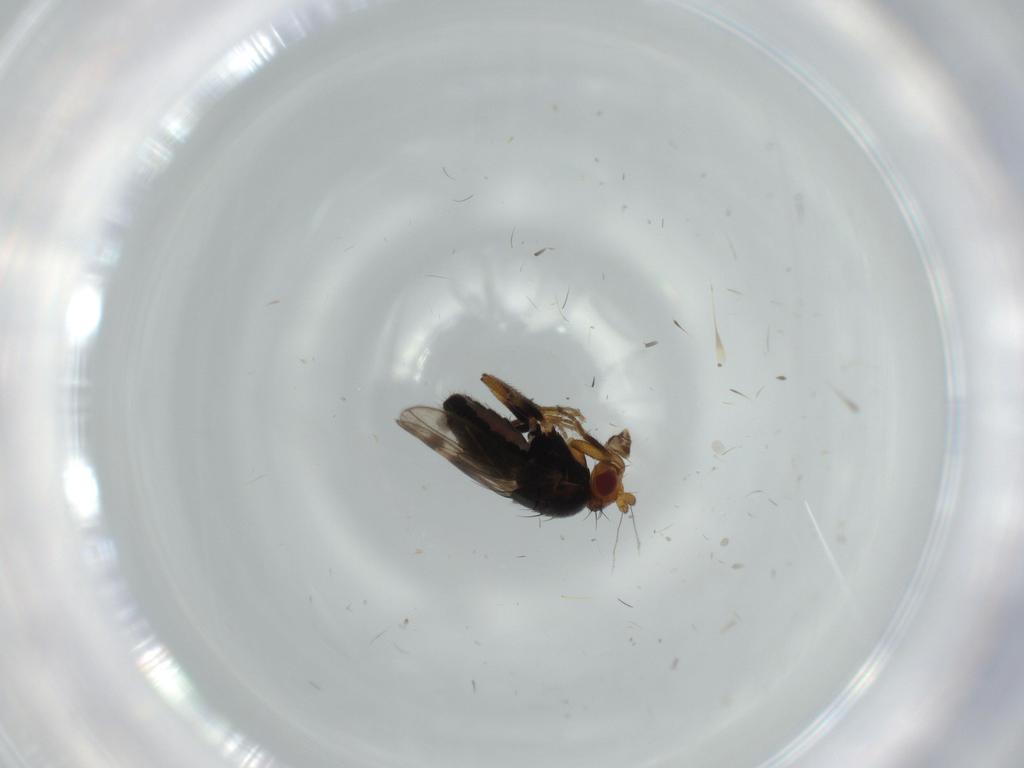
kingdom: Animalia
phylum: Arthropoda
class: Insecta
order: Diptera
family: Sphaeroceridae
